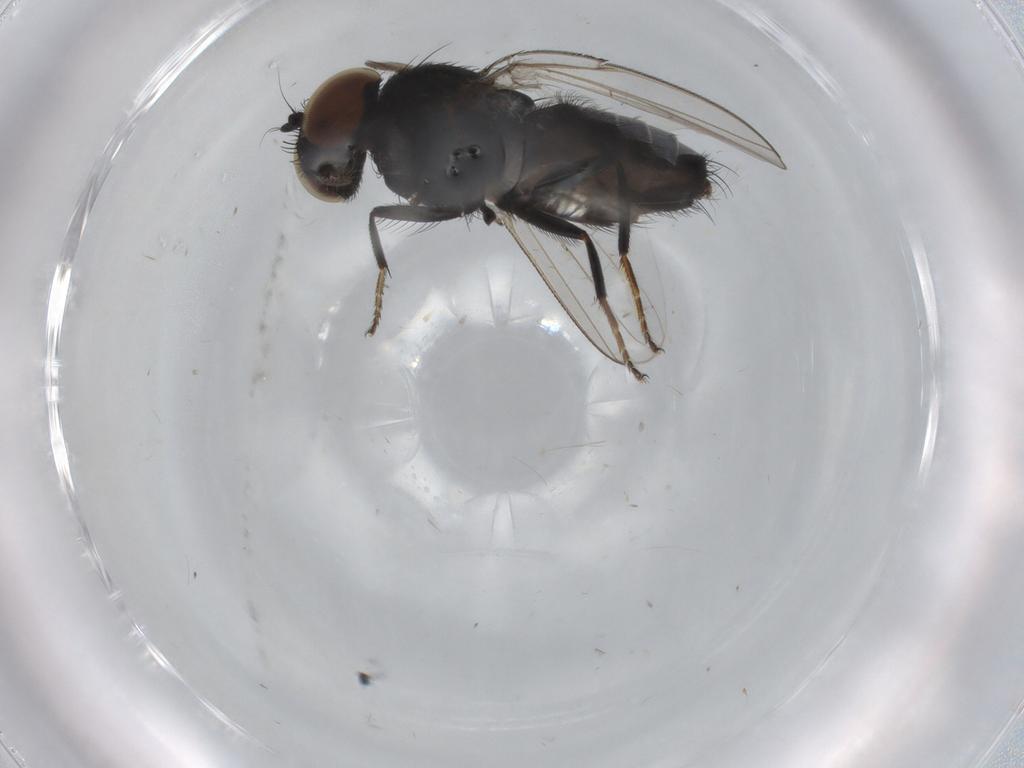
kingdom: Animalia
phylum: Arthropoda
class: Insecta
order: Diptera
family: Milichiidae
